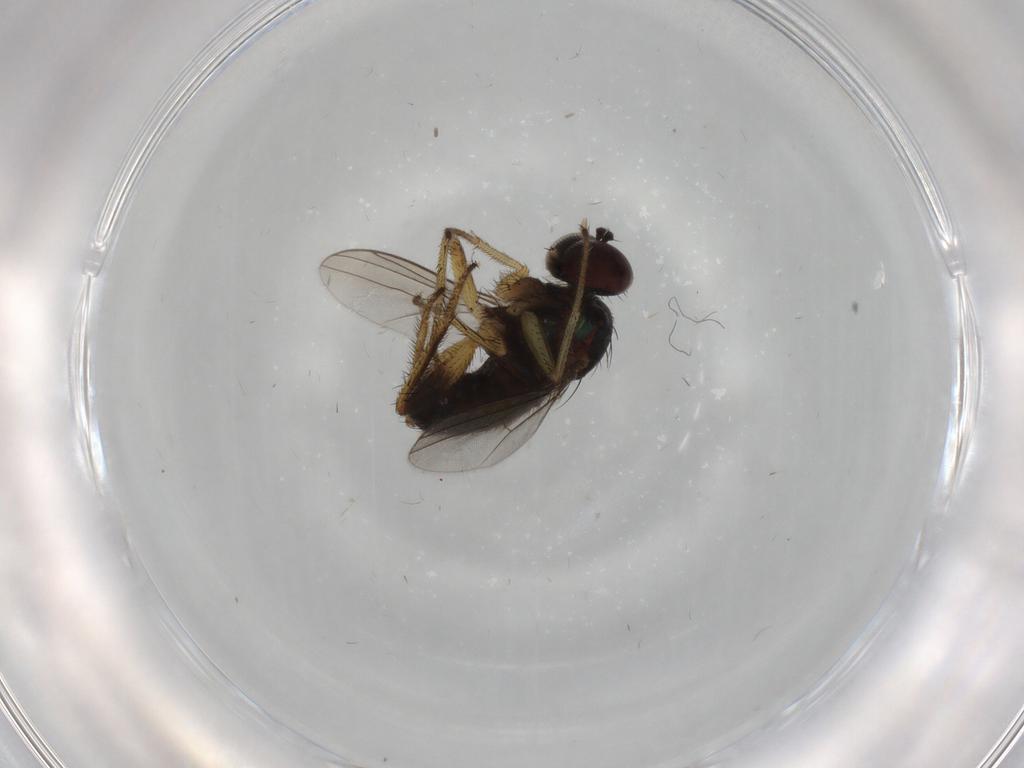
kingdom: Animalia
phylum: Arthropoda
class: Insecta
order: Diptera
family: Dolichopodidae
